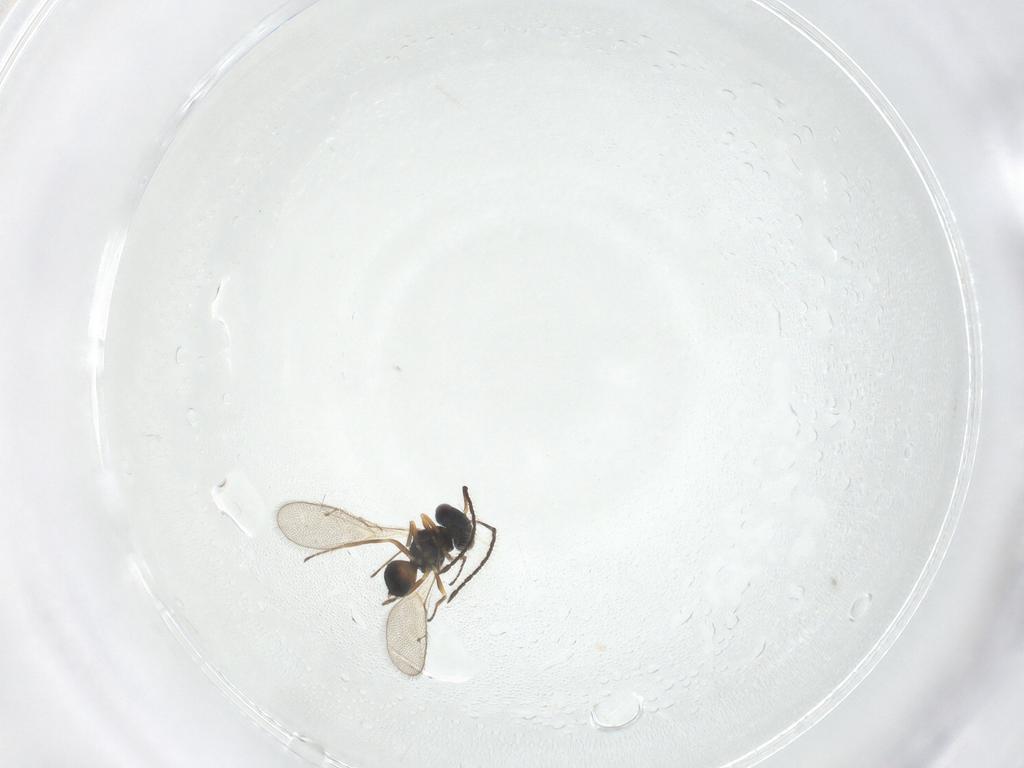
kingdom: Animalia
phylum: Arthropoda
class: Insecta
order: Hymenoptera
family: Pteromalidae
